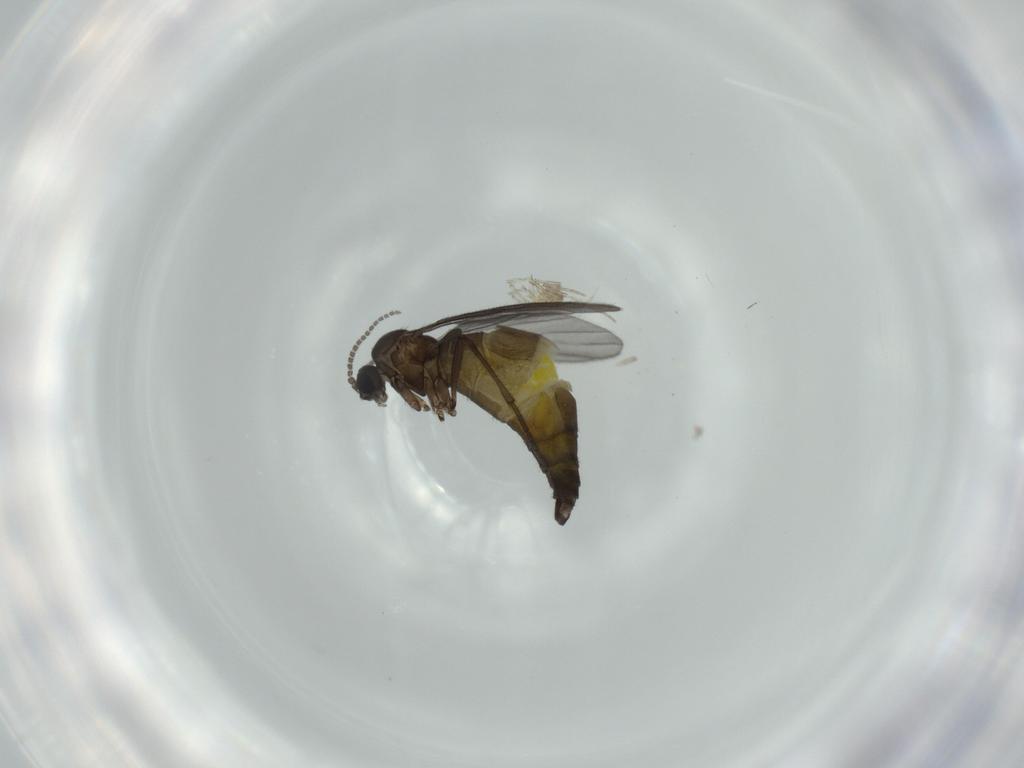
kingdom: Animalia
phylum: Arthropoda
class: Insecta
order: Diptera
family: Sciaridae
